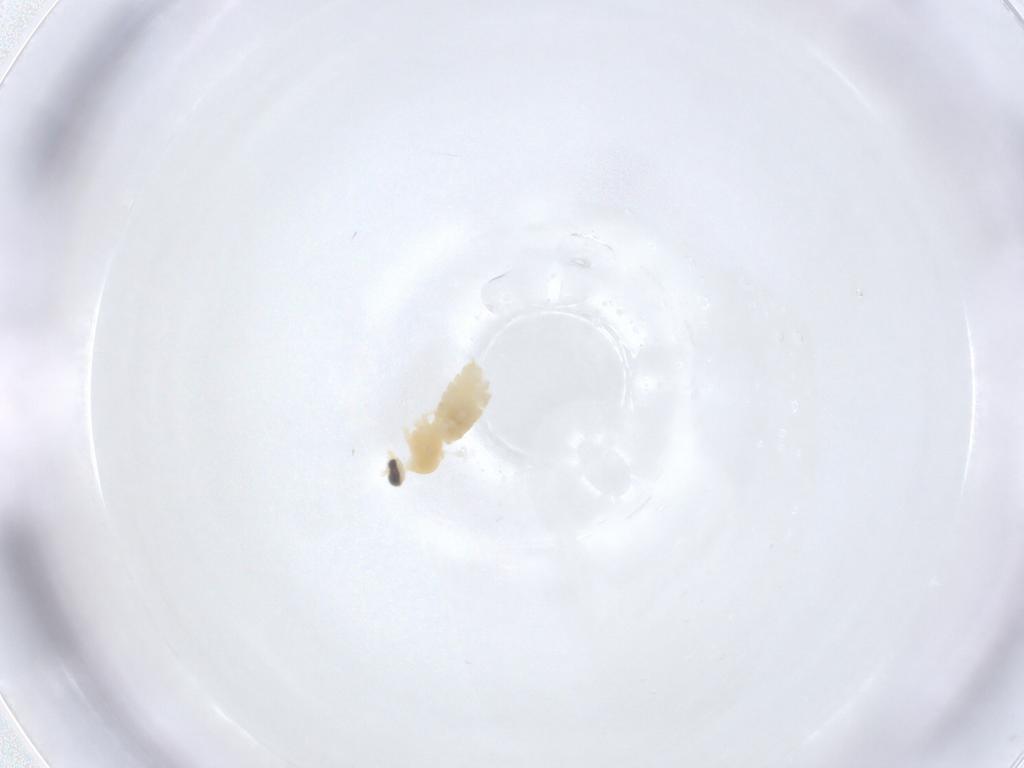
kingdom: Animalia
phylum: Arthropoda
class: Insecta
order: Diptera
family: Cecidomyiidae
